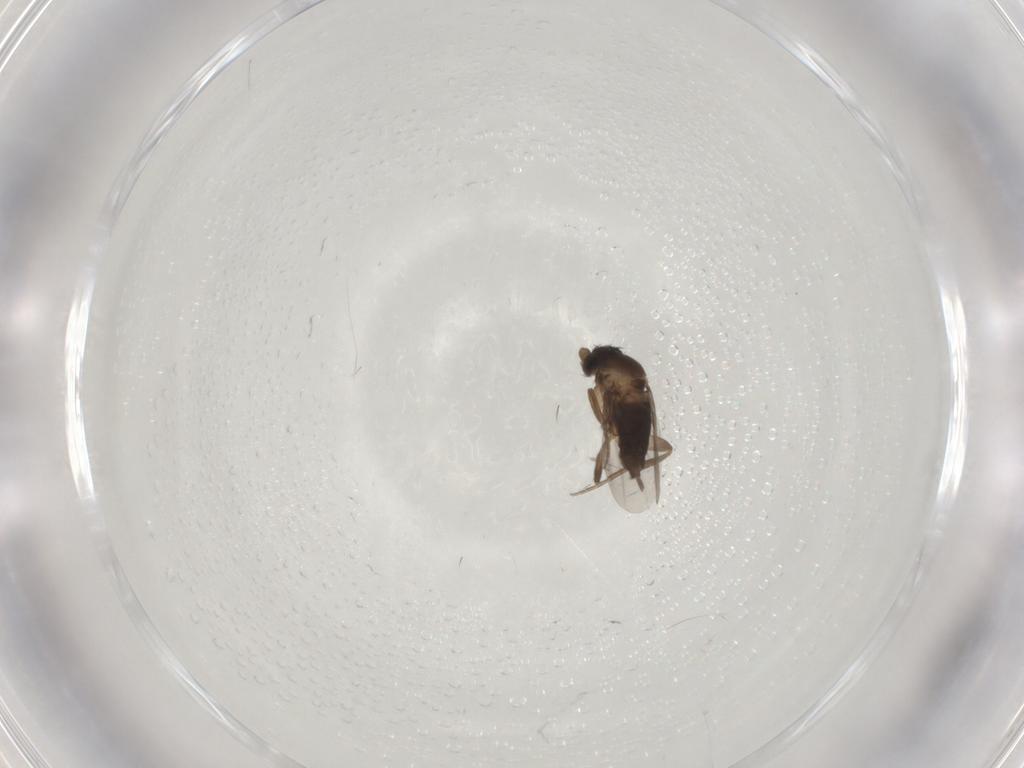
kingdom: Animalia
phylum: Arthropoda
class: Insecta
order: Diptera
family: Phoridae
